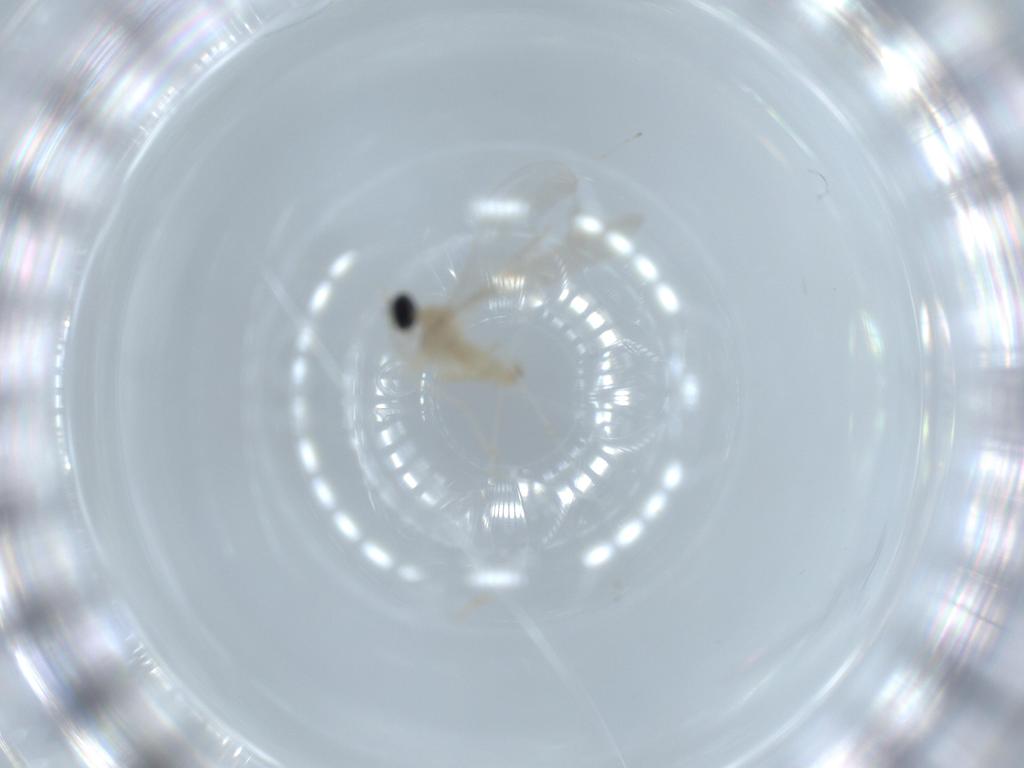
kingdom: Animalia
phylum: Arthropoda
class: Insecta
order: Diptera
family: Cecidomyiidae
